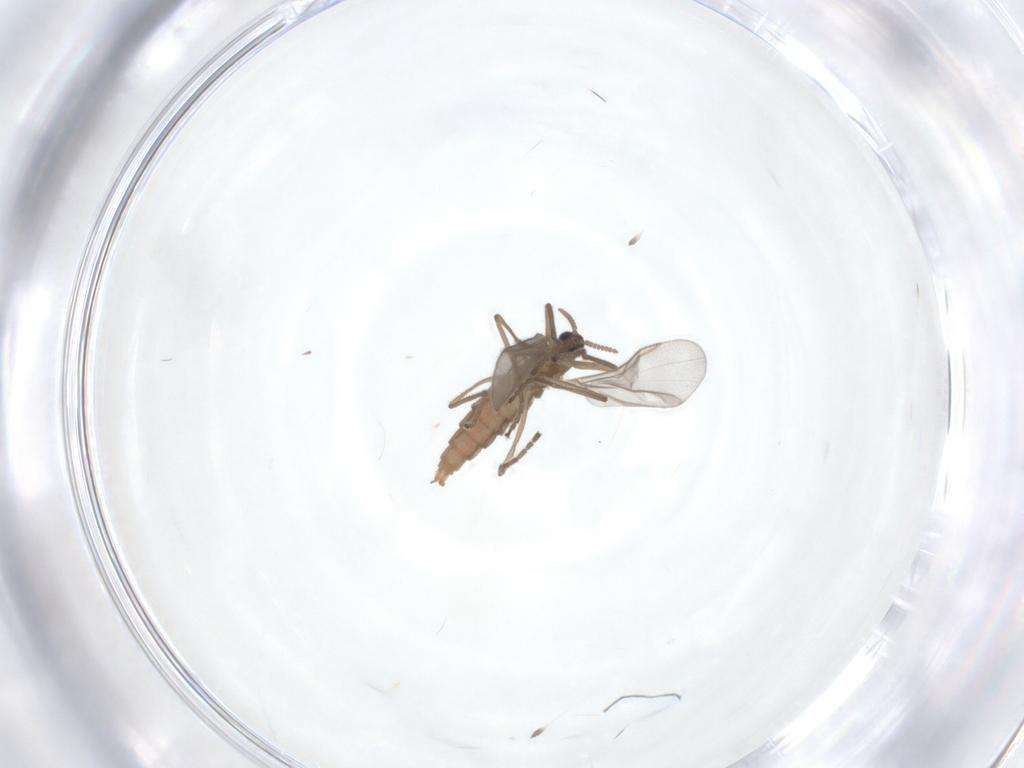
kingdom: Animalia
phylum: Arthropoda
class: Insecta
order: Diptera
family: Cecidomyiidae
